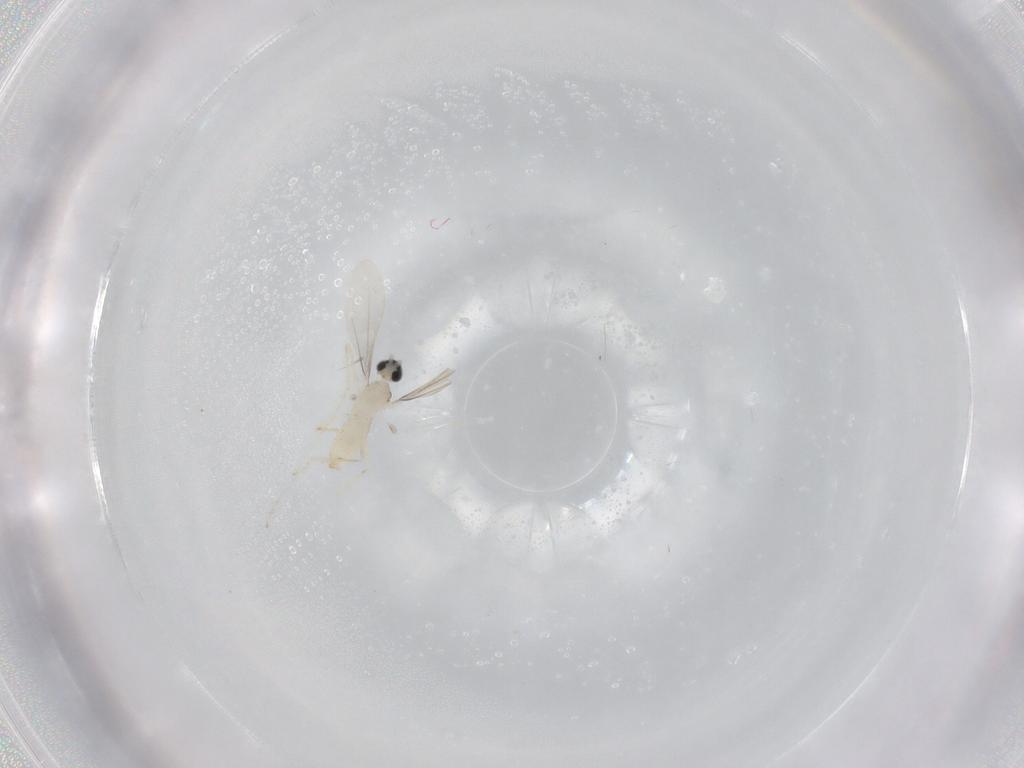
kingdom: Animalia
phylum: Arthropoda
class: Insecta
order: Diptera
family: Cecidomyiidae
